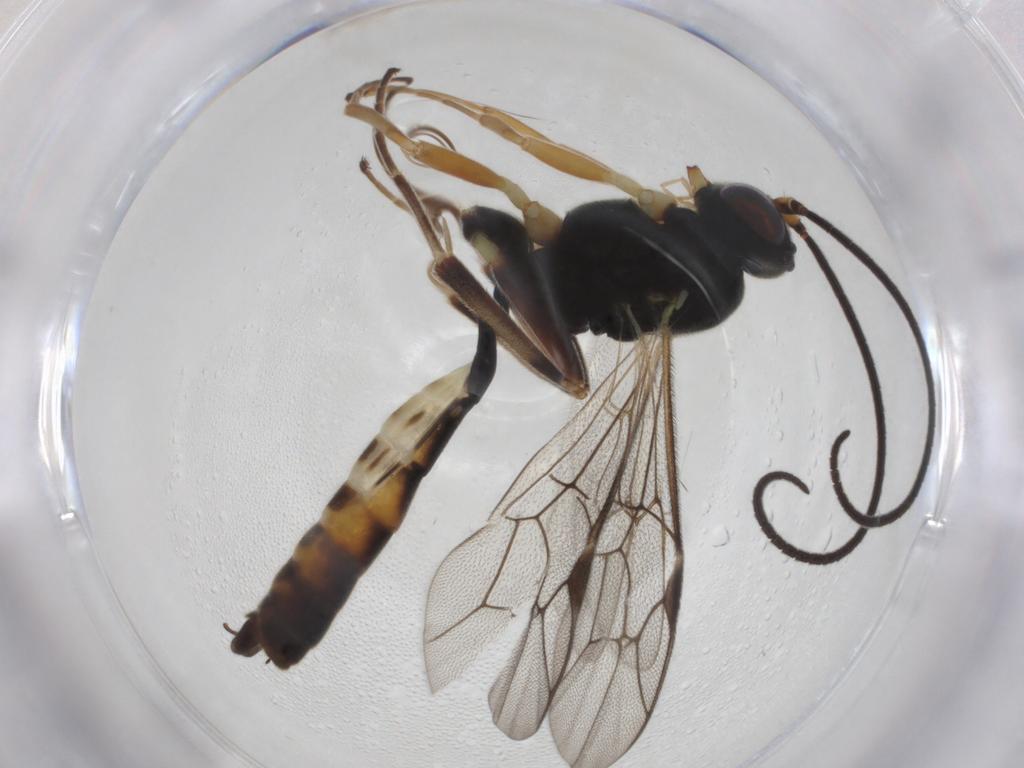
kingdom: Animalia
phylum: Arthropoda
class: Insecta
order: Hymenoptera
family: Ichneumonidae
